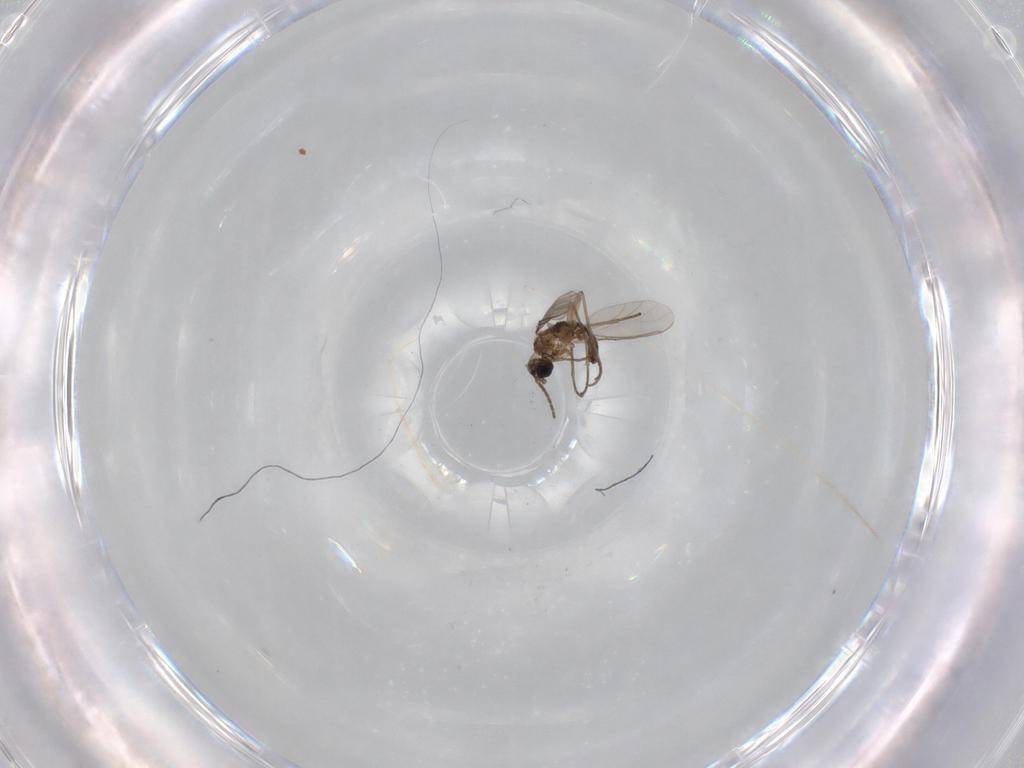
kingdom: Animalia
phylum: Arthropoda
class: Insecta
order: Diptera
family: Sciaridae
